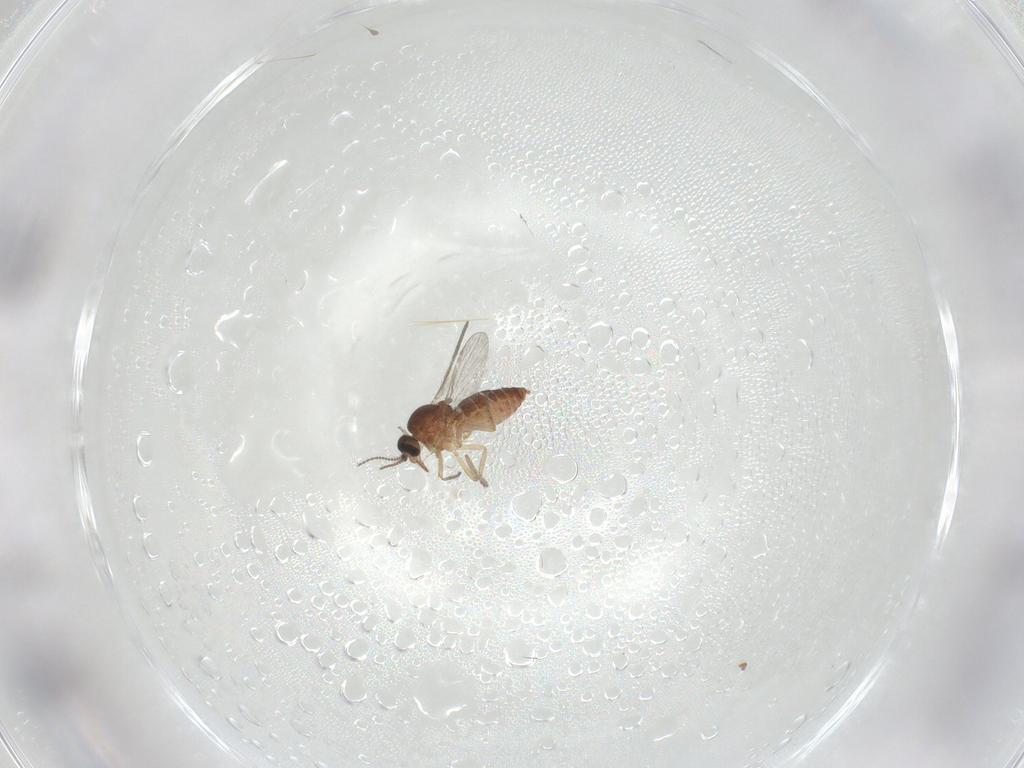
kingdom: Animalia
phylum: Arthropoda
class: Insecta
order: Diptera
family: Ceratopogonidae
